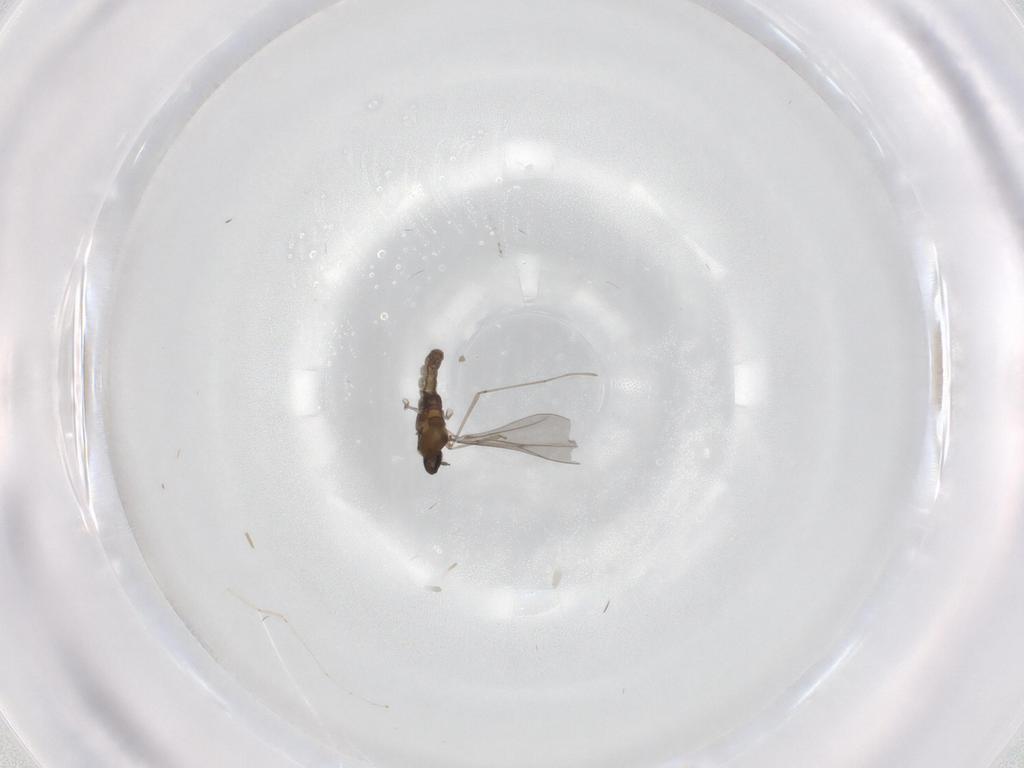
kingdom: Animalia
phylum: Arthropoda
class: Insecta
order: Diptera
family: Cecidomyiidae
